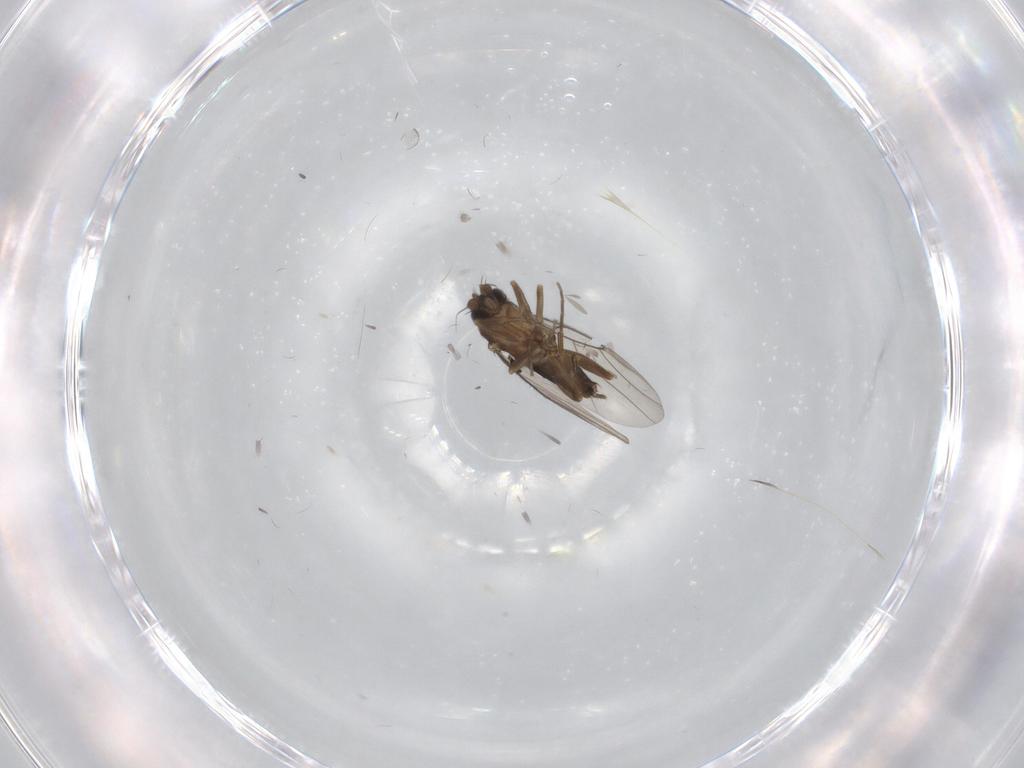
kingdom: Animalia
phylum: Arthropoda
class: Insecta
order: Diptera
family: Phoridae
